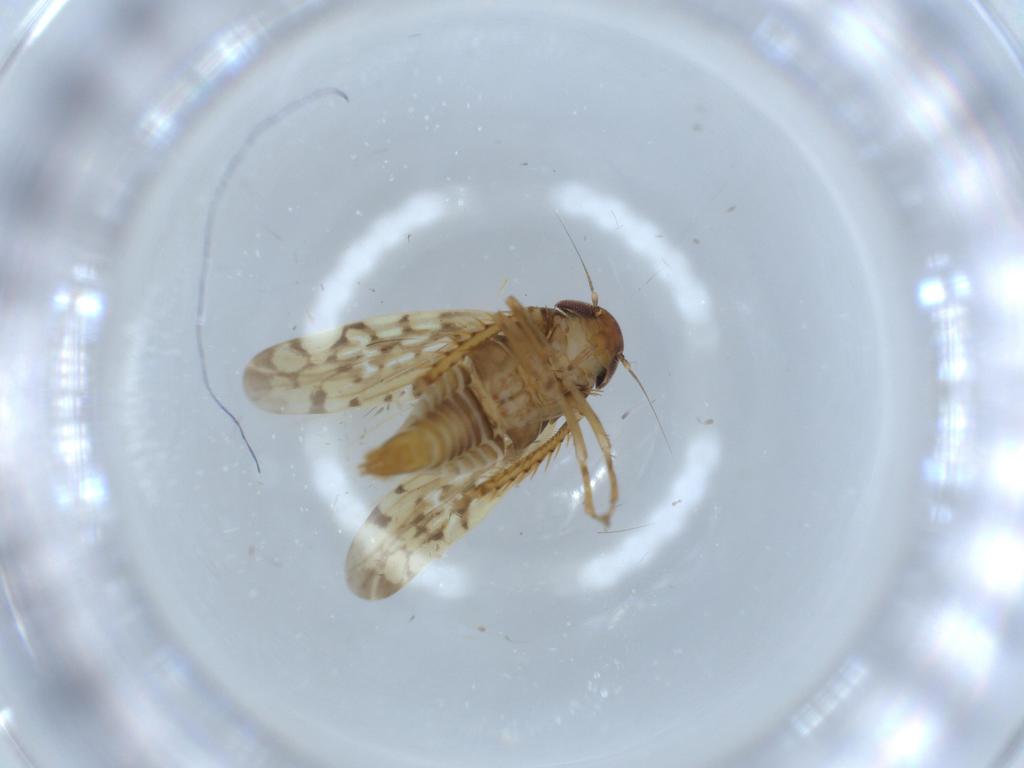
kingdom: Animalia
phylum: Arthropoda
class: Insecta
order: Hemiptera
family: Cicadellidae
